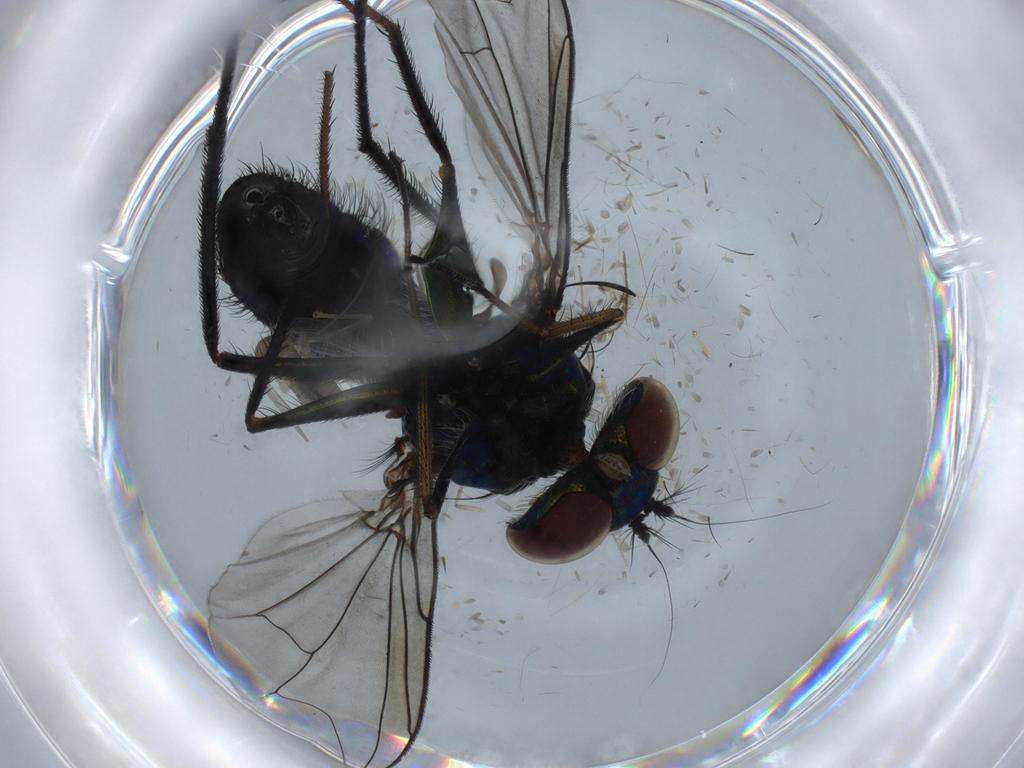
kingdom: Animalia
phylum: Arthropoda
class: Insecta
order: Diptera
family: Dolichopodidae
